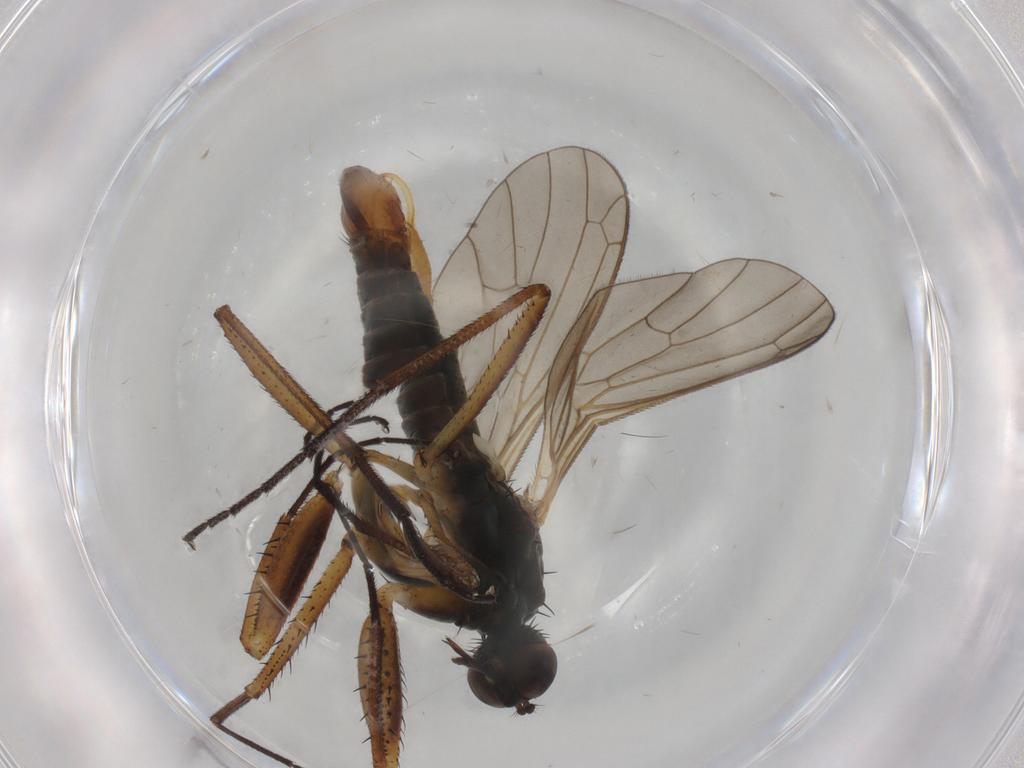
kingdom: Animalia
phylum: Arthropoda
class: Insecta
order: Diptera
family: Empididae
